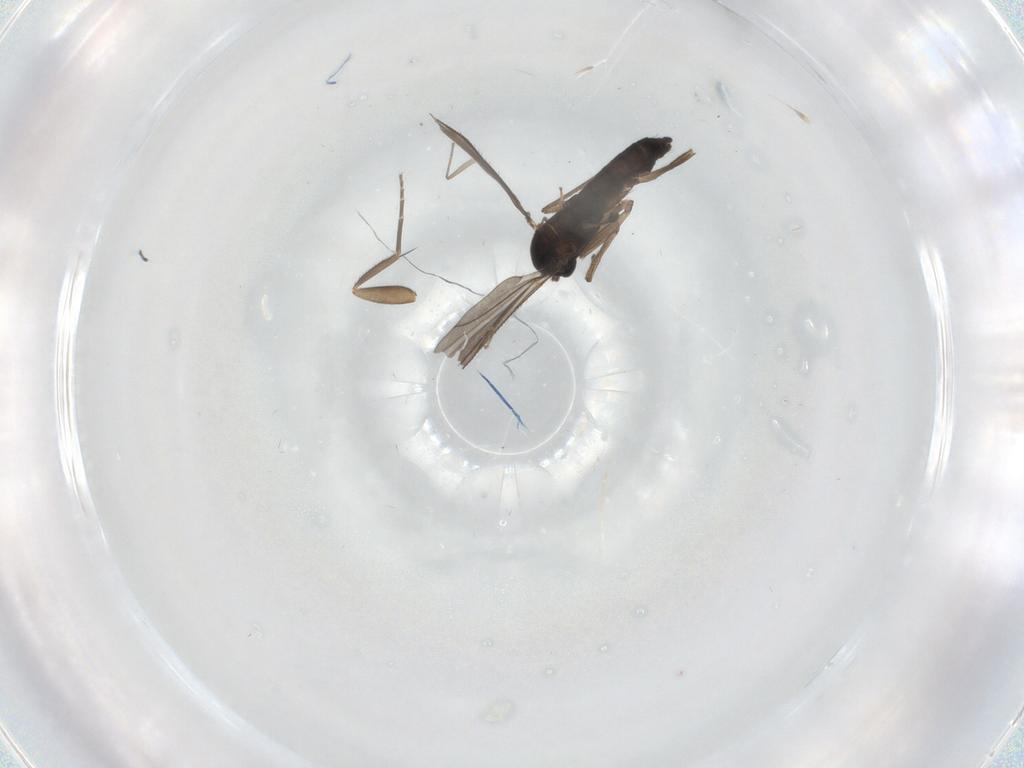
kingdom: Animalia
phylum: Arthropoda
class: Insecta
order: Diptera
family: Sciaridae
